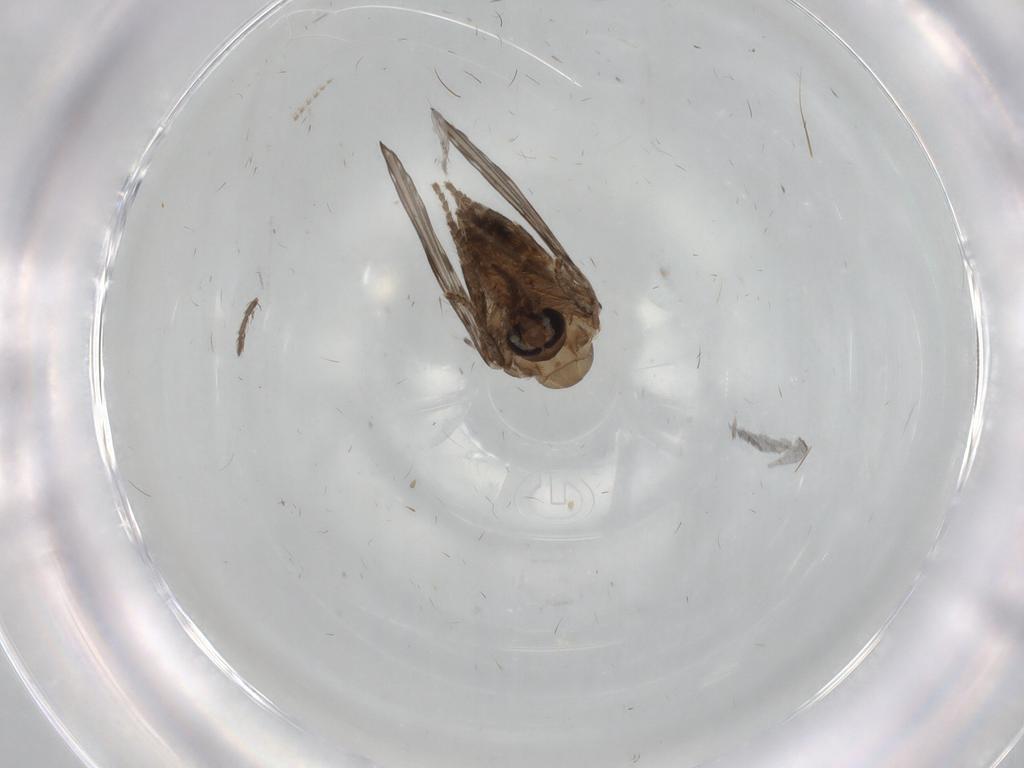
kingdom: Animalia
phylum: Arthropoda
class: Insecta
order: Diptera
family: Psychodidae
